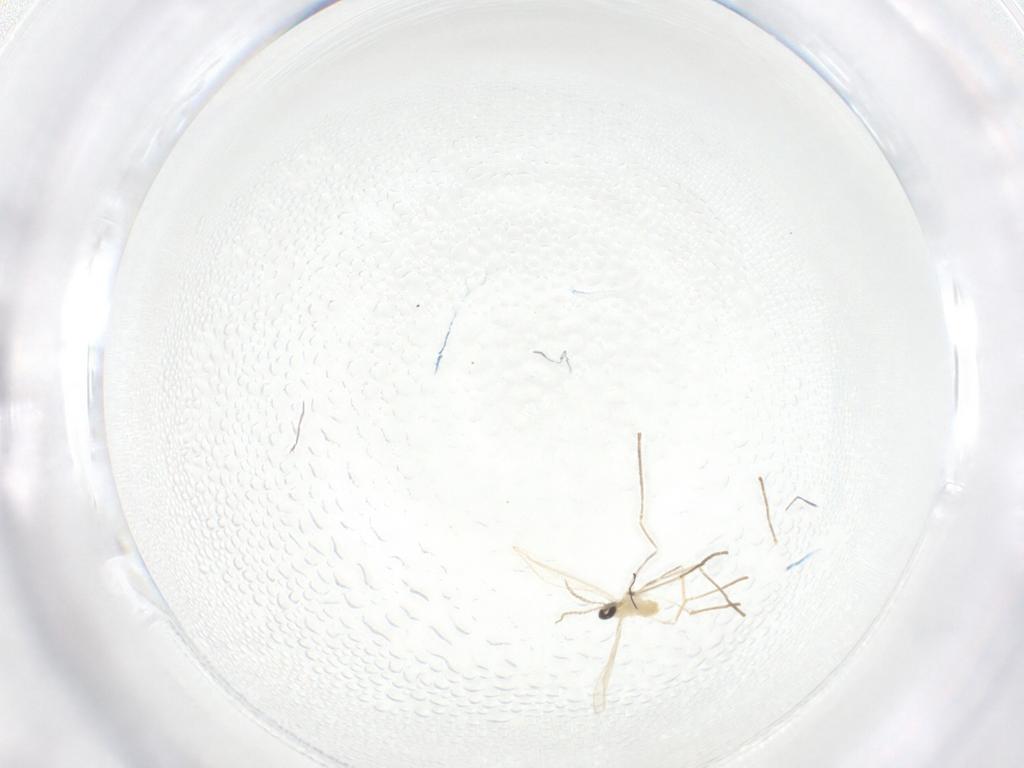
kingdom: Animalia
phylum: Arthropoda
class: Insecta
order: Diptera
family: Cecidomyiidae
